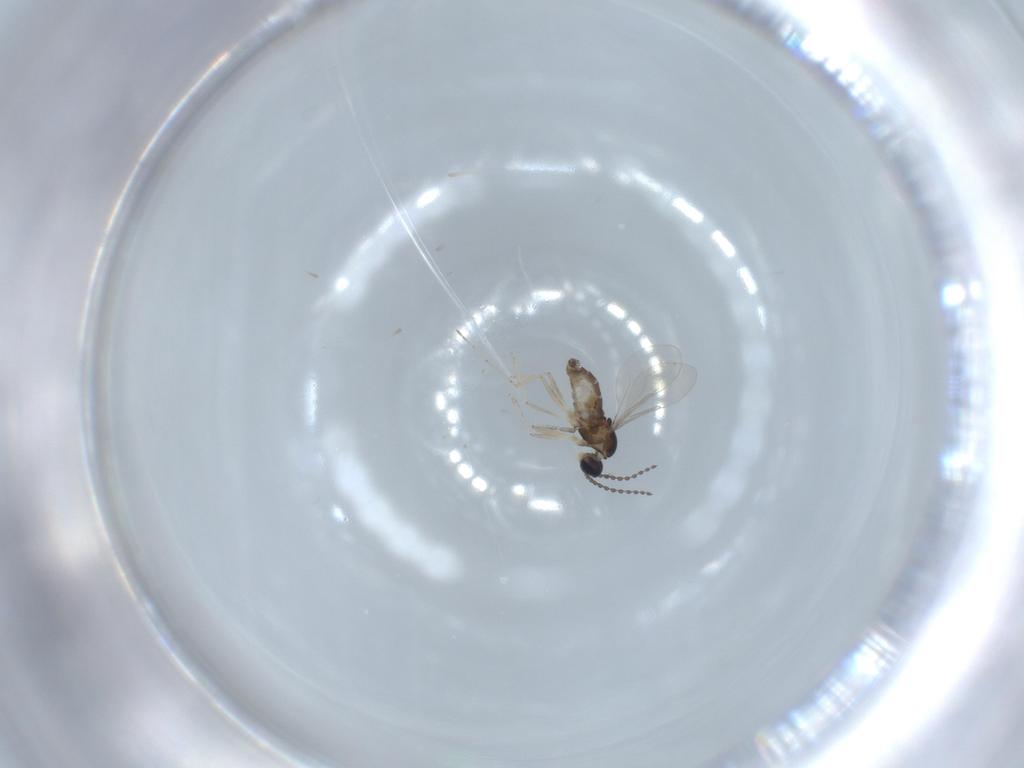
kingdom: Animalia
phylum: Arthropoda
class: Insecta
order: Diptera
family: Cecidomyiidae
